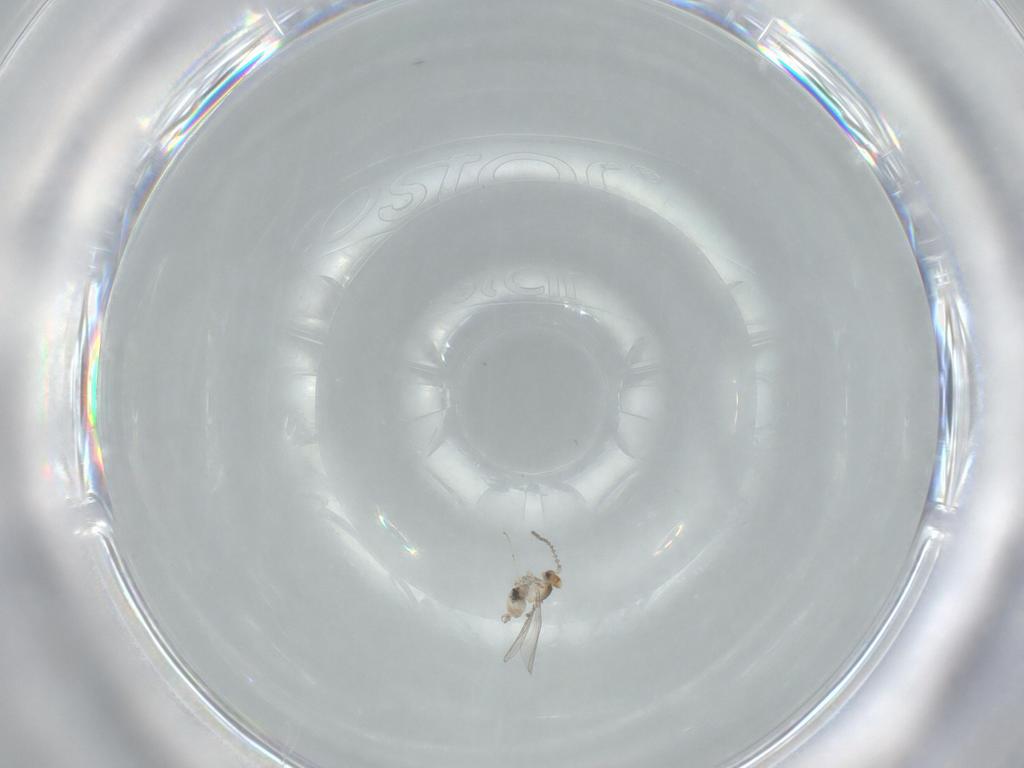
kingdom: Animalia
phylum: Arthropoda
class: Insecta
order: Diptera
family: Cecidomyiidae
